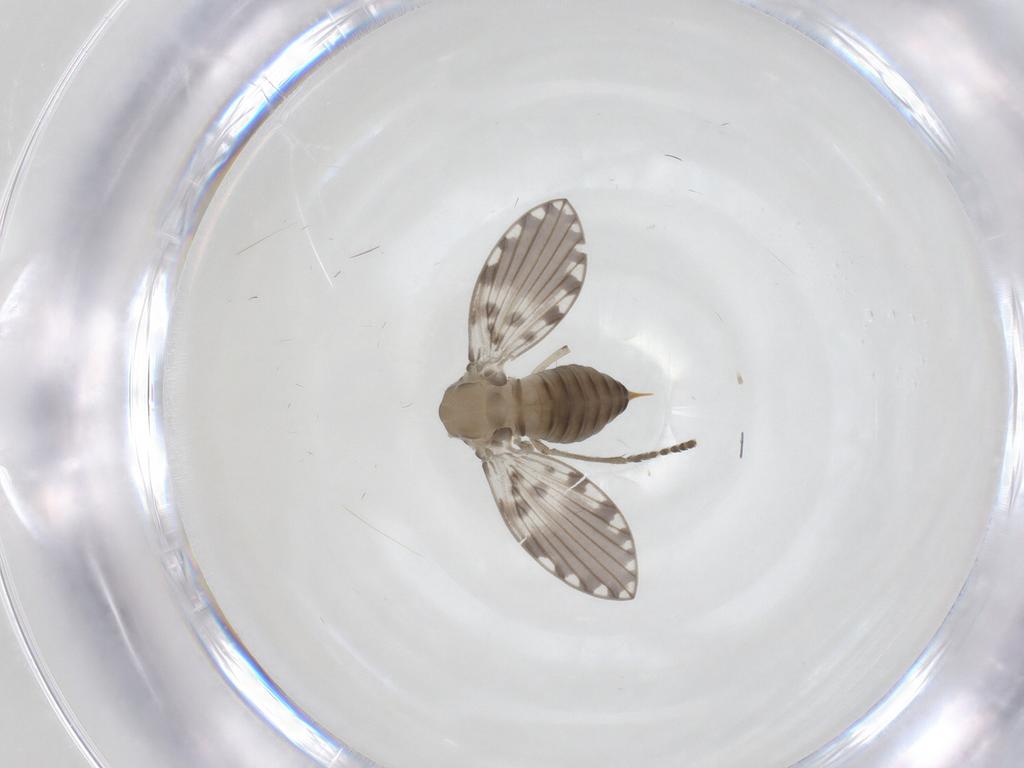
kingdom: Animalia
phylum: Arthropoda
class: Insecta
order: Diptera
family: Psychodidae
